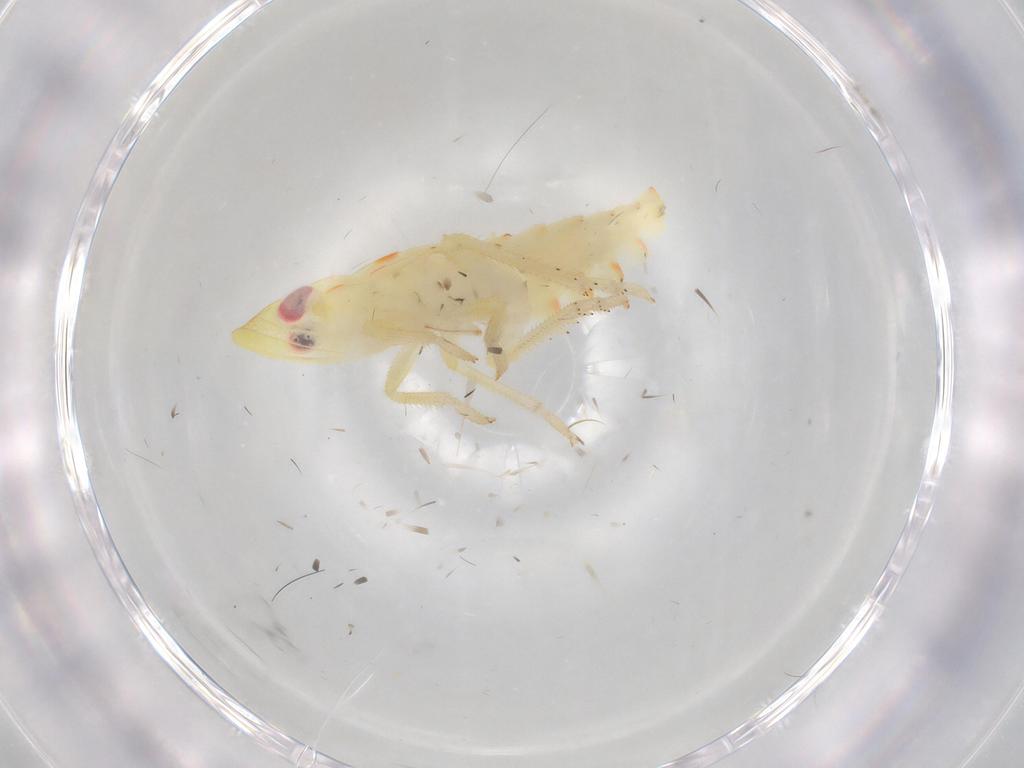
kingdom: Animalia
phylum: Arthropoda
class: Insecta
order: Hemiptera
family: Tropiduchidae
